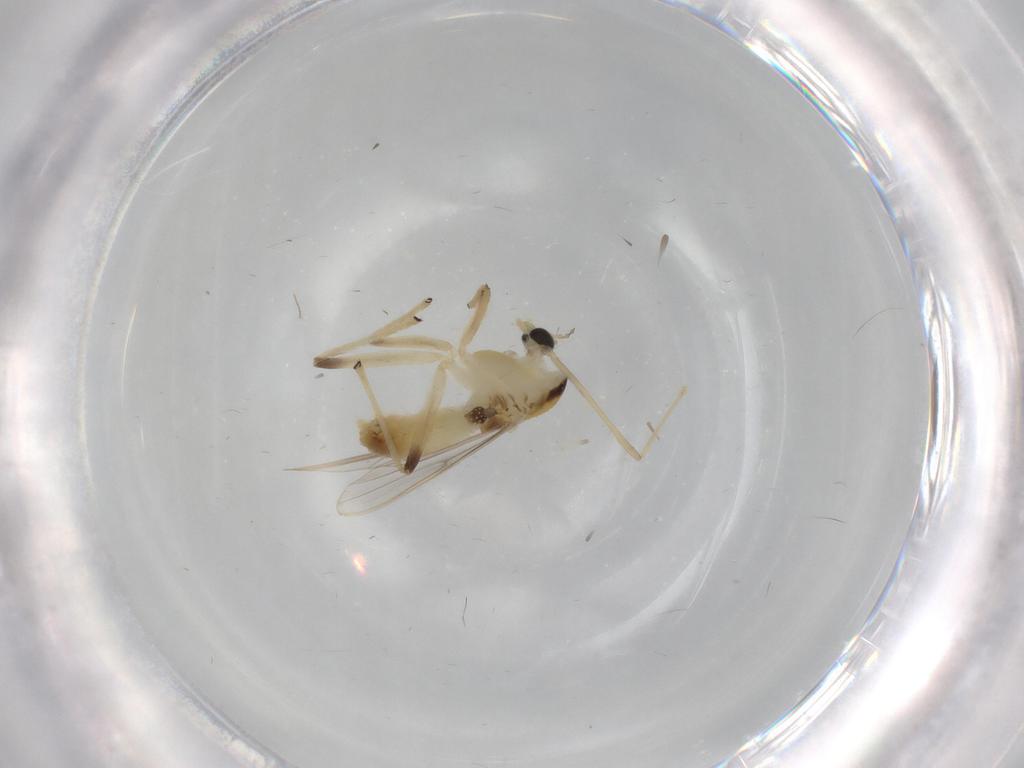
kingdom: Animalia
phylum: Arthropoda
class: Insecta
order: Diptera
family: Chironomidae
